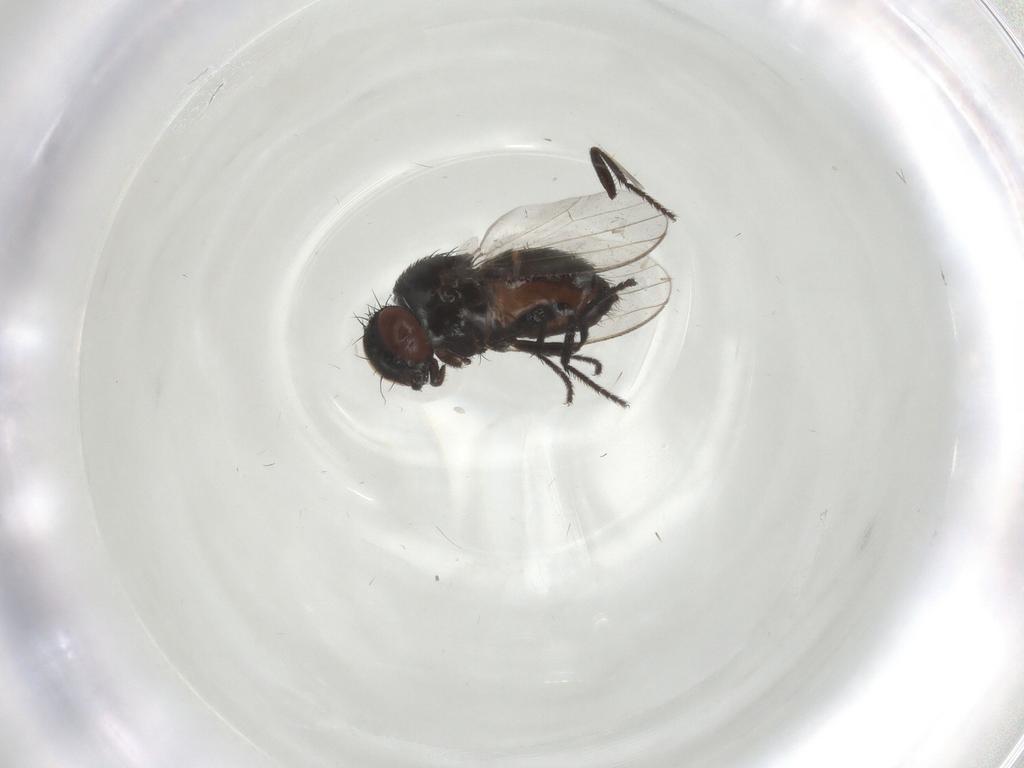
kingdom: Animalia
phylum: Arthropoda
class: Insecta
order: Diptera
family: Milichiidae
